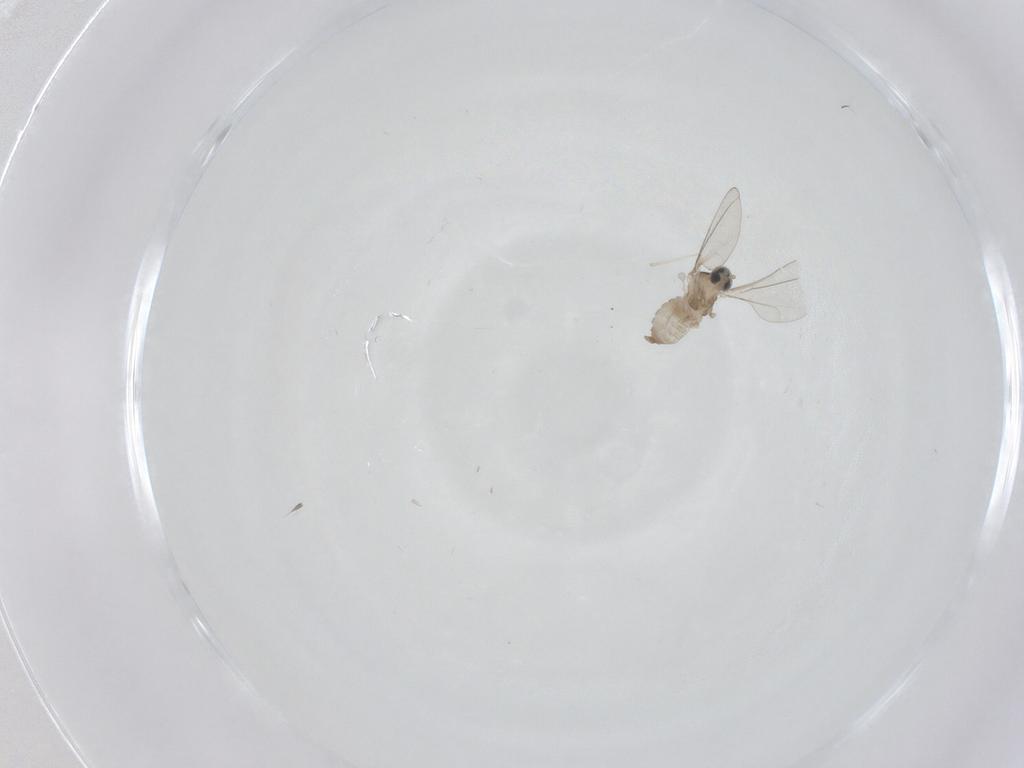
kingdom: Animalia
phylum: Arthropoda
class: Insecta
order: Diptera
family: Cecidomyiidae
